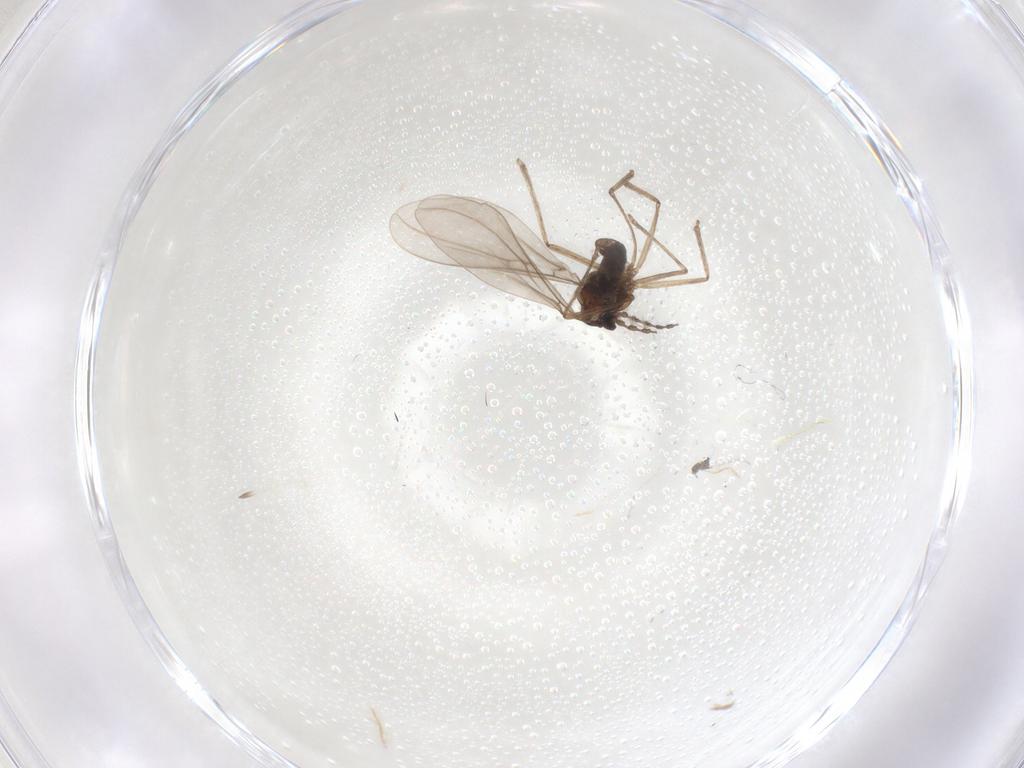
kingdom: Animalia
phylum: Arthropoda
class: Insecta
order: Diptera
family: Cecidomyiidae
